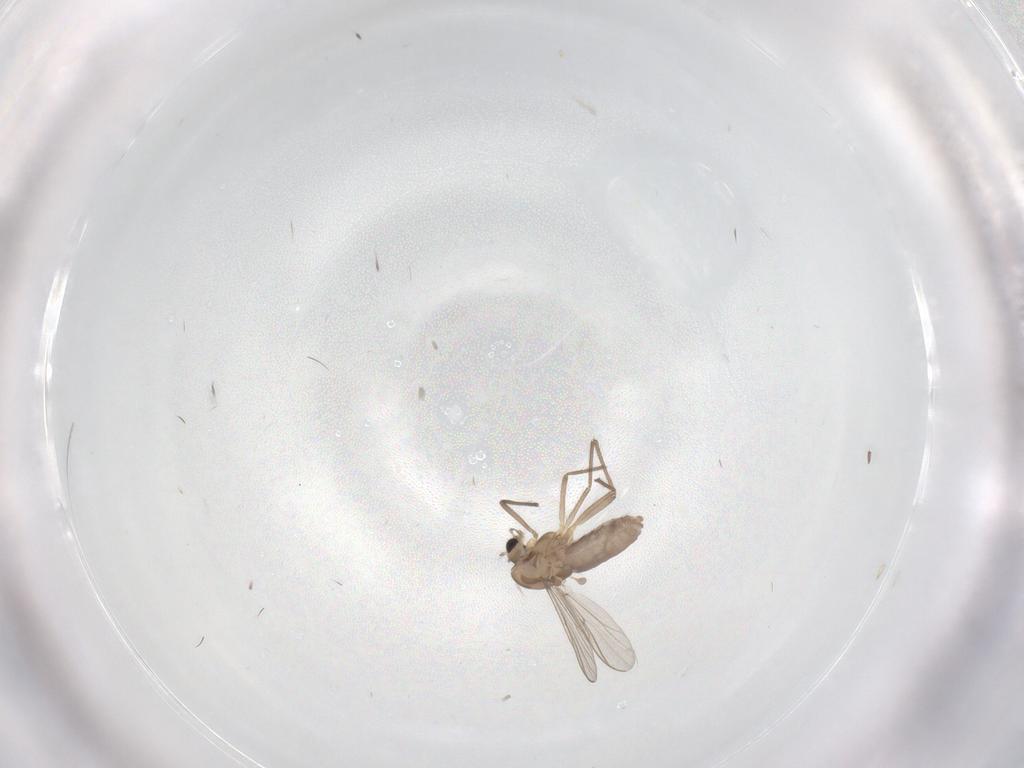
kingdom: Animalia
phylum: Arthropoda
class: Insecta
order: Diptera
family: Chironomidae
